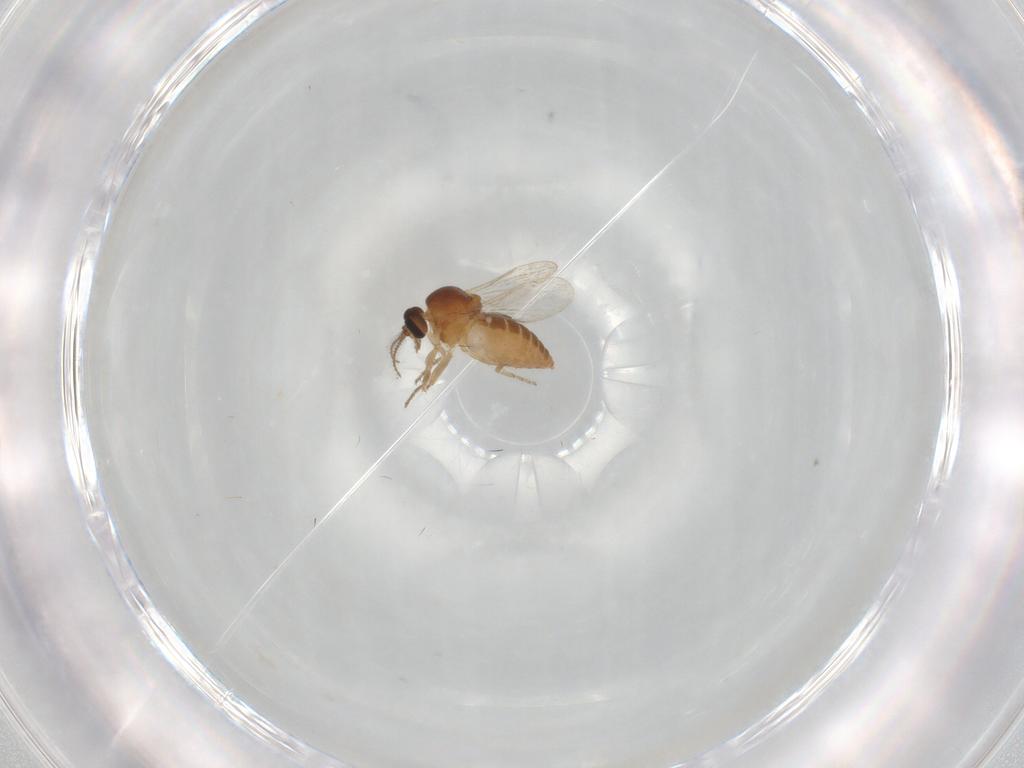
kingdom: Animalia
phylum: Arthropoda
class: Insecta
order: Diptera
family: Ceratopogonidae
